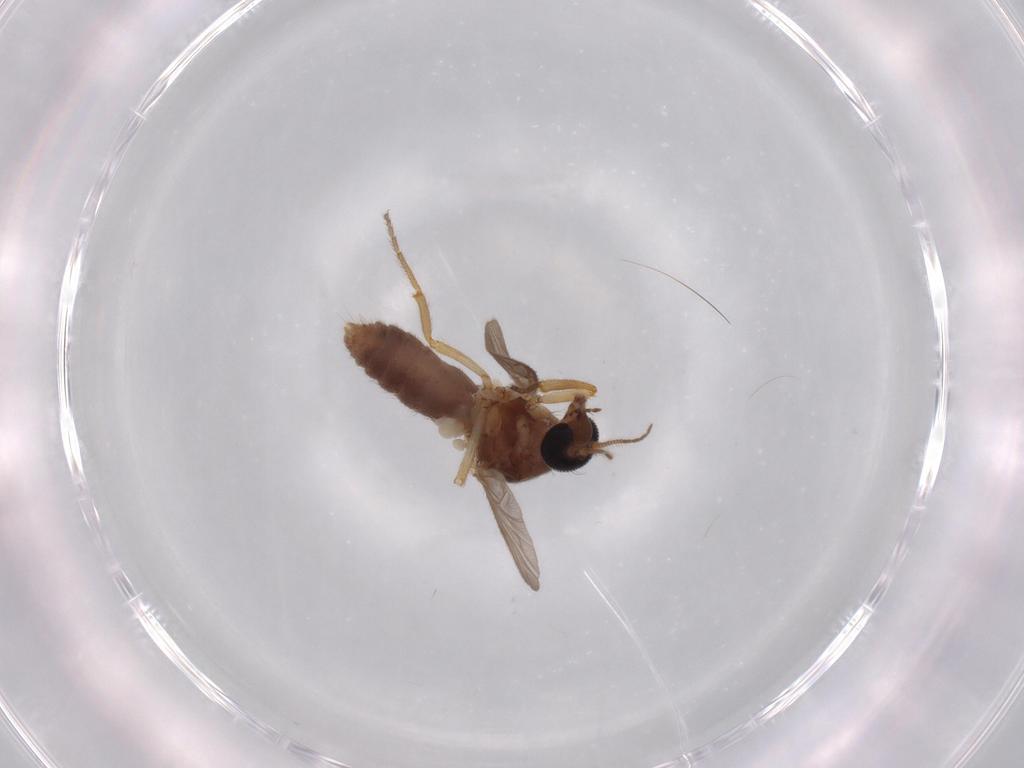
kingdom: Animalia
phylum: Arthropoda
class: Insecta
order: Diptera
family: Ceratopogonidae
